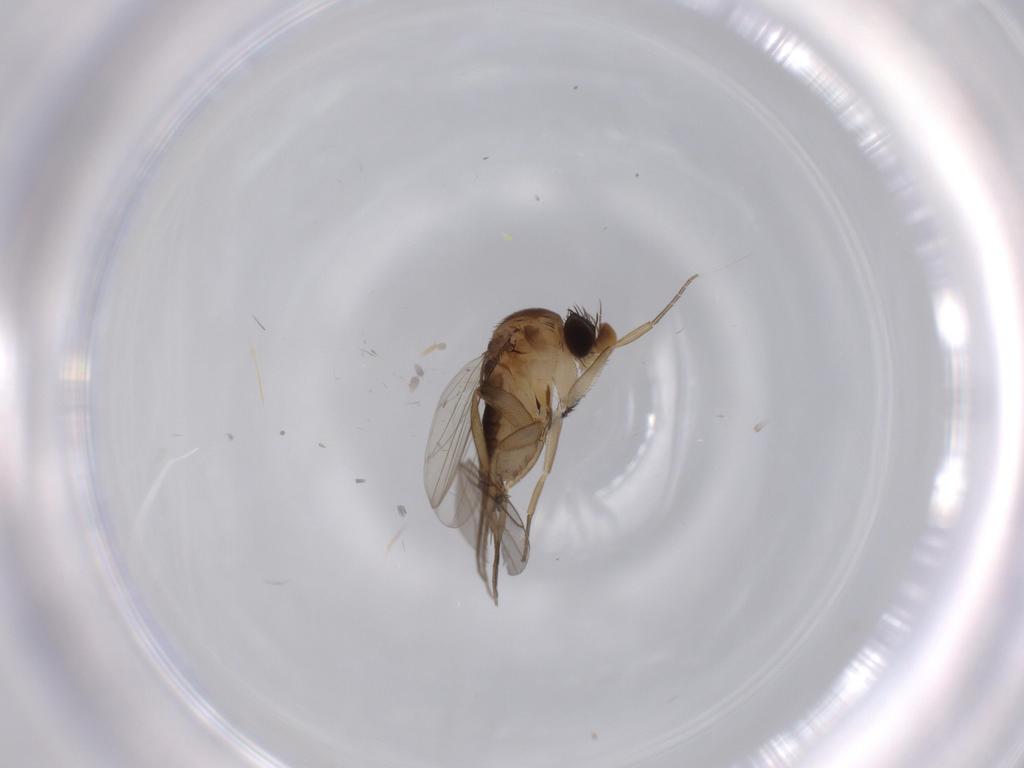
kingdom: Animalia
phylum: Arthropoda
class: Insecta
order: Diptera
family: Phoridae
